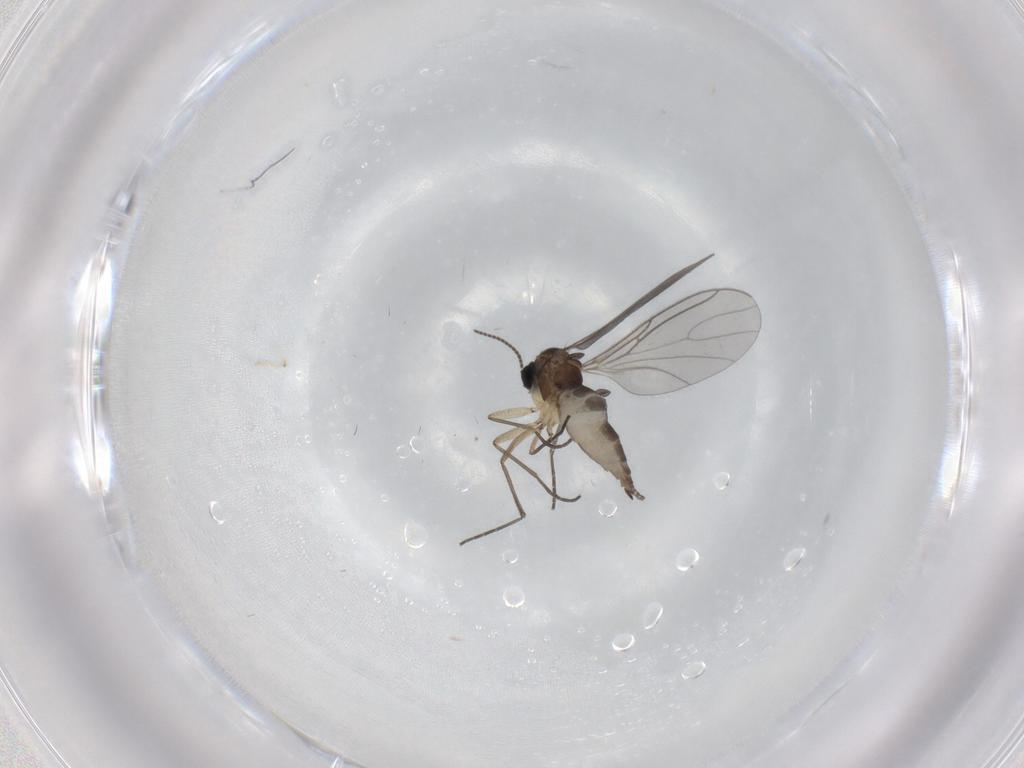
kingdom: Animalia
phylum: Arthropoda
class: Insecta
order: Diptera
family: Sciaridae
